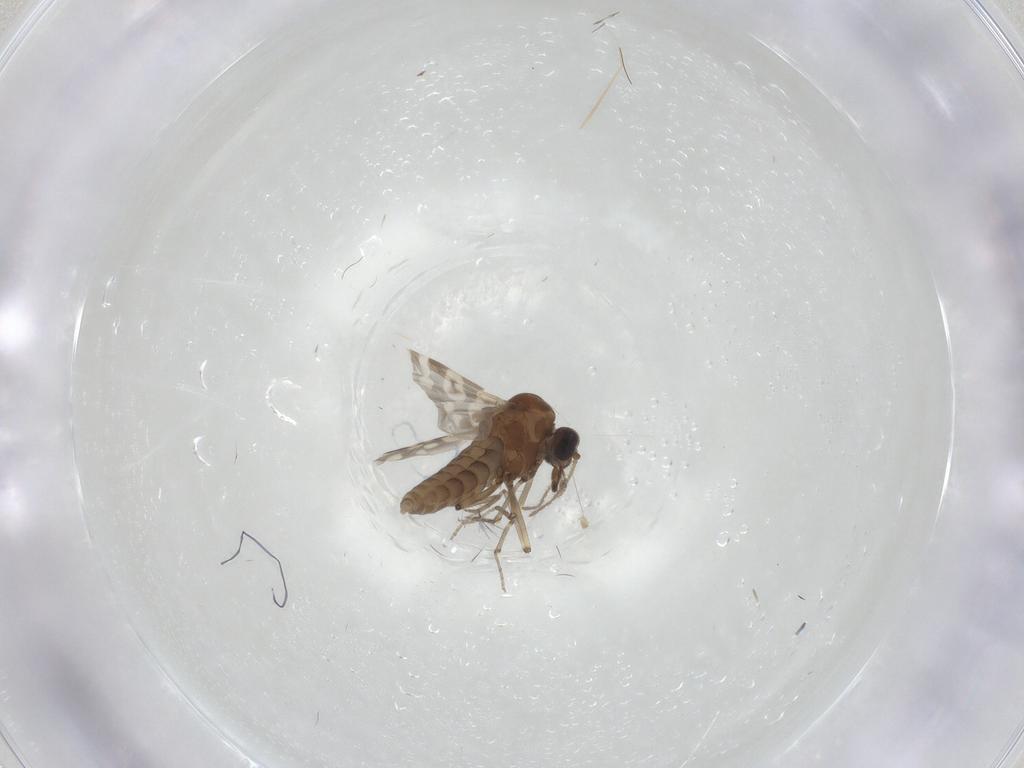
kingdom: Animalia
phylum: Arthropoda
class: Insecta
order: Diptera
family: Chironomidae
